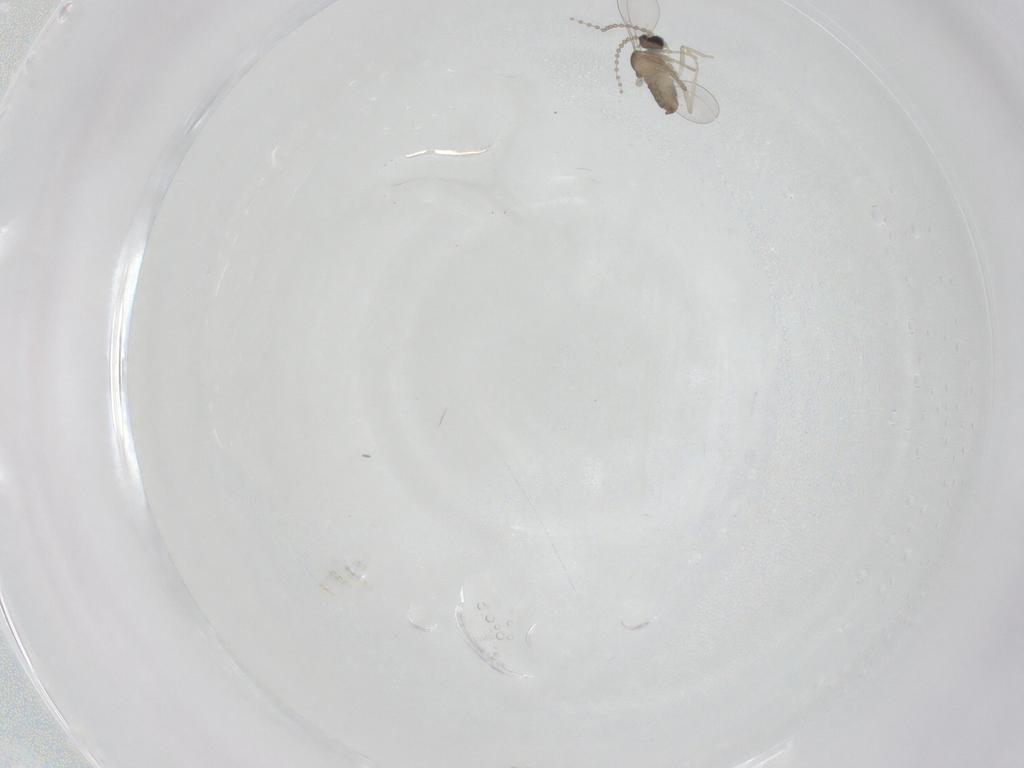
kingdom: Animalia
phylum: Arthropoda
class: Insecta
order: Diptera
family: Cecidomyiidae
